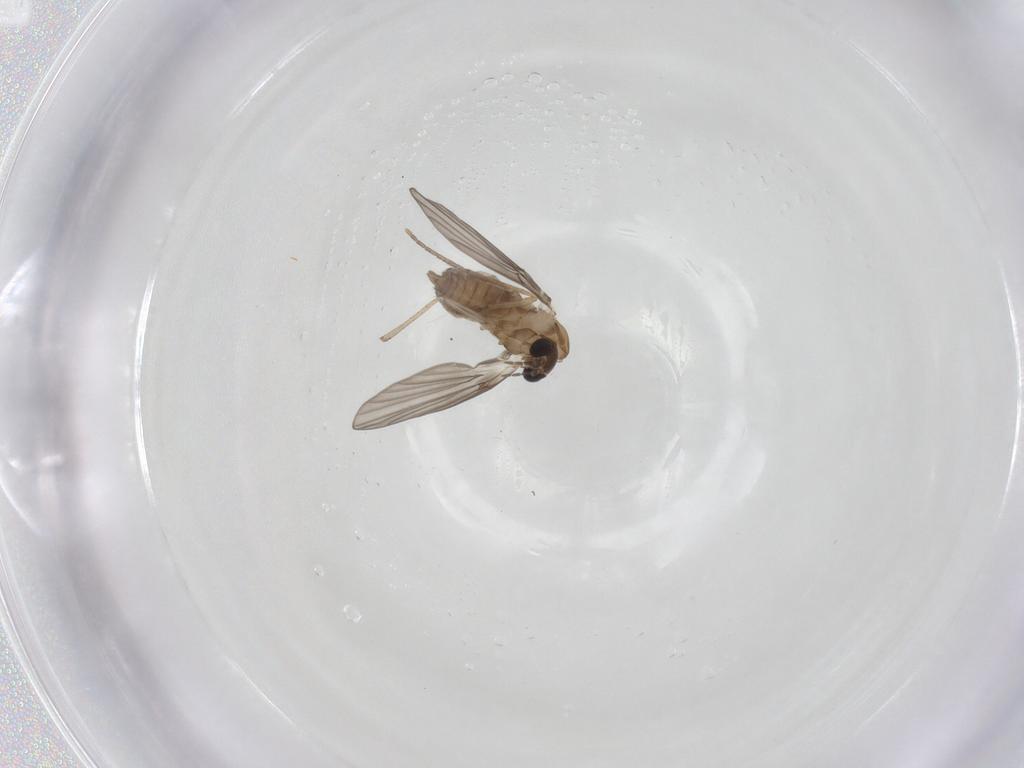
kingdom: Animalia
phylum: Arthropoda
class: Insecta
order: Diptera
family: Psychodidae
